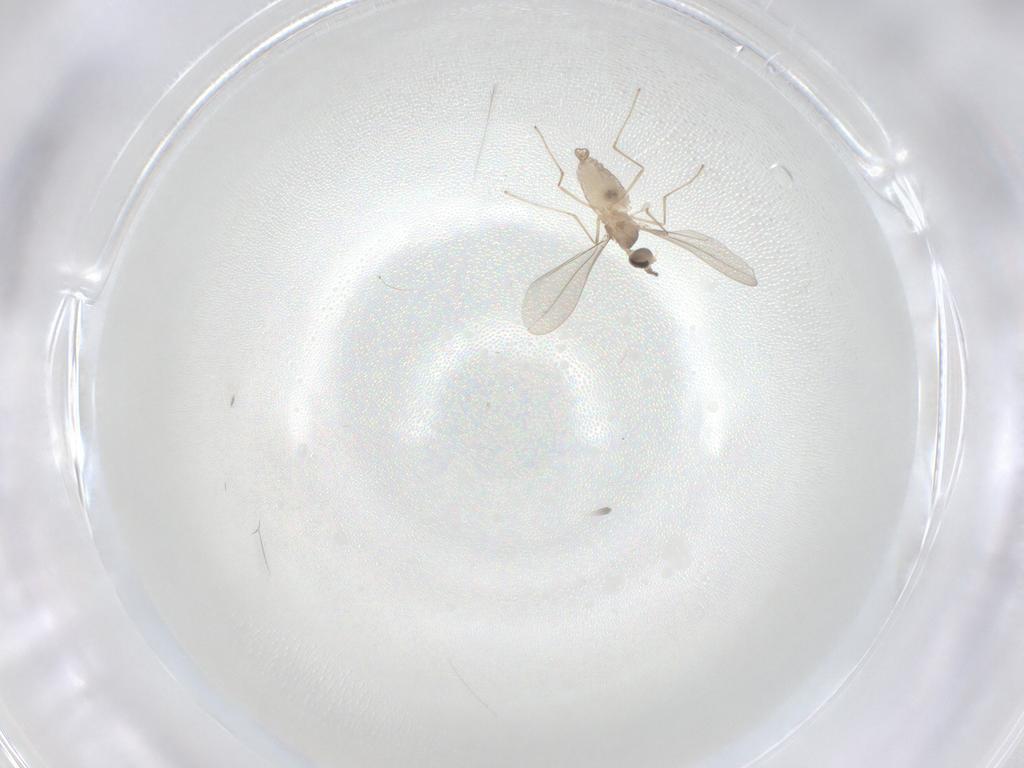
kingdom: Animalia
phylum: Arthropoda
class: Insecta
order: Diptera
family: Cecidomyiidae
